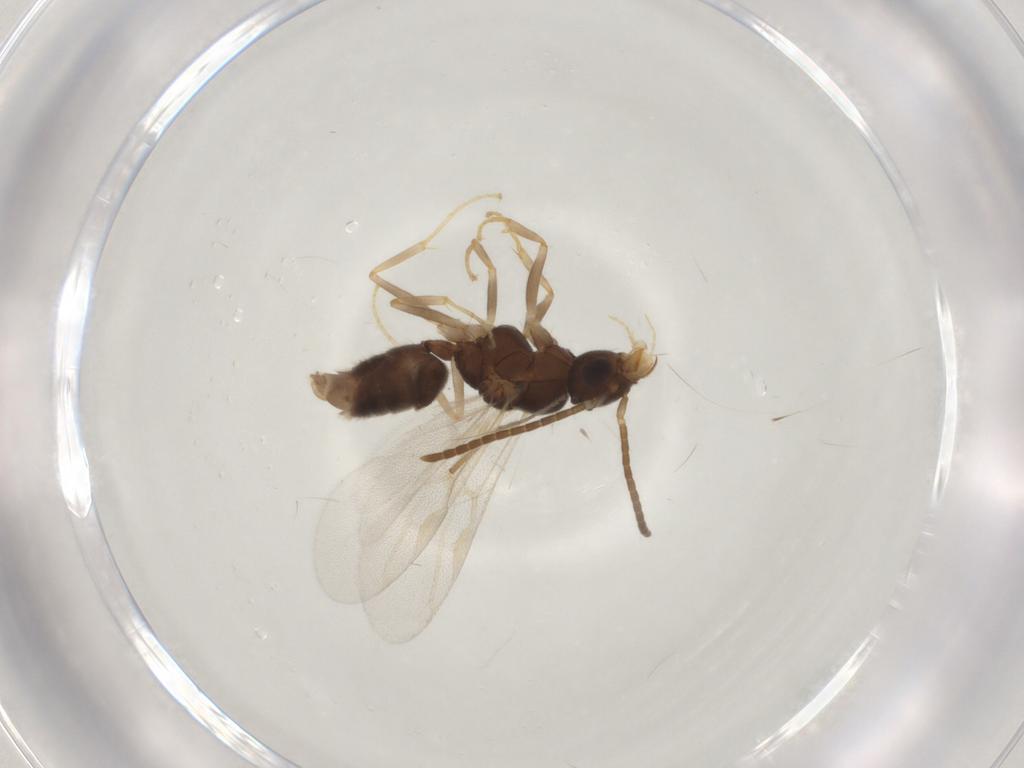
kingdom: Animalia
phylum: Arthropoda
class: Insecta
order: Hymenoptera
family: Formicidae
